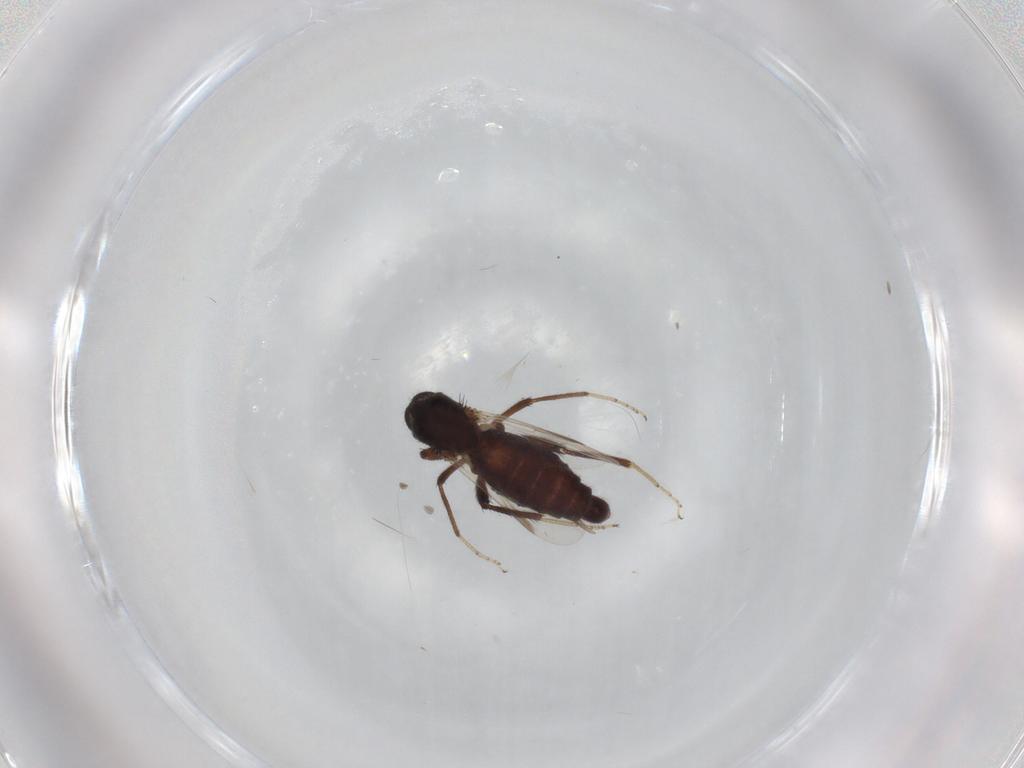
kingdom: Animalia
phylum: Arthropoda
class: Insecta
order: Diptera
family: Ceratopogonidae
